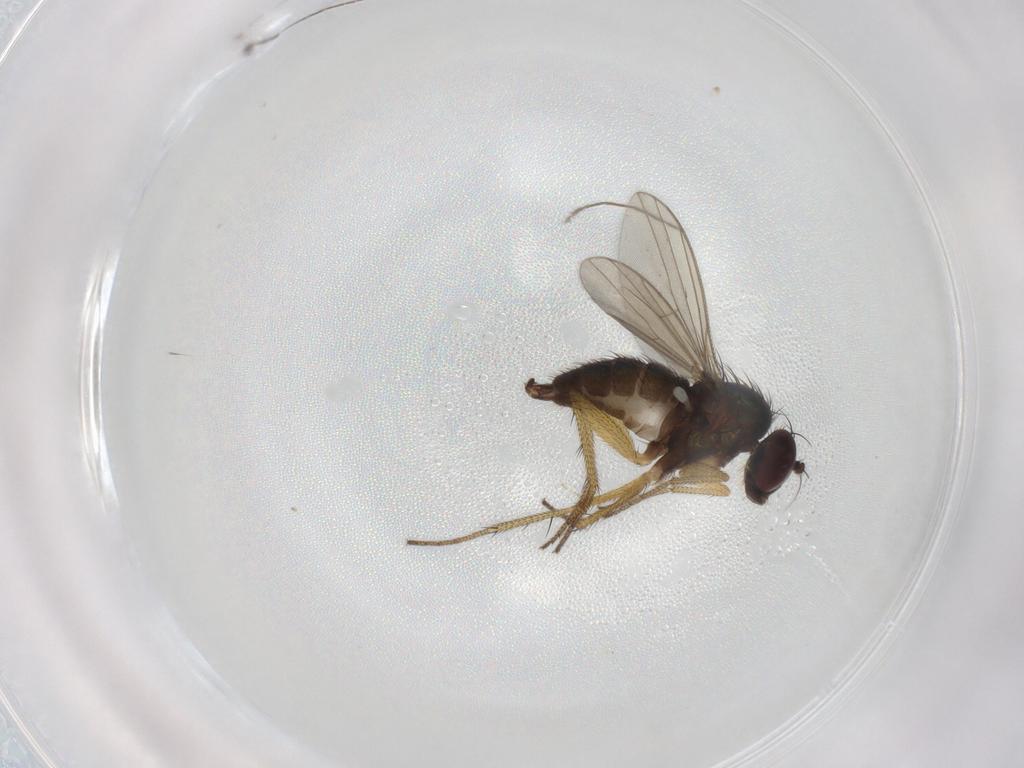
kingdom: Animalia
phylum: Arthropoda
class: Insecta
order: Diptera
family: Chironomidae
